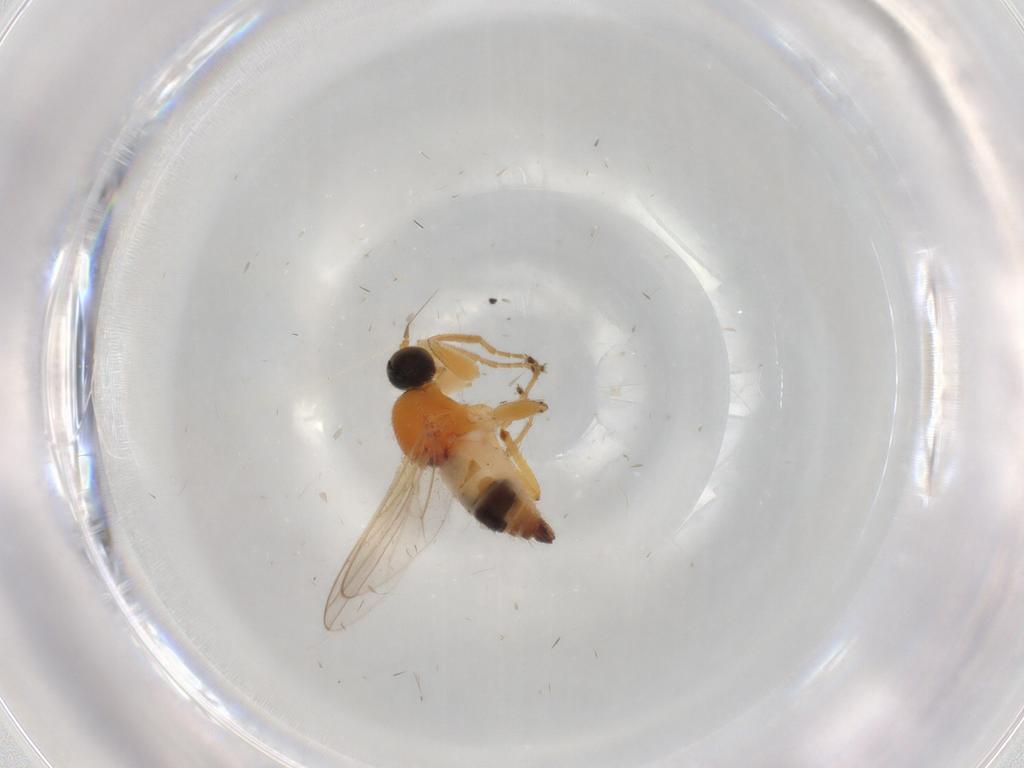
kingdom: Animalia
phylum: Arthropoda
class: Insecta
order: Diptera
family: Hybotidae
